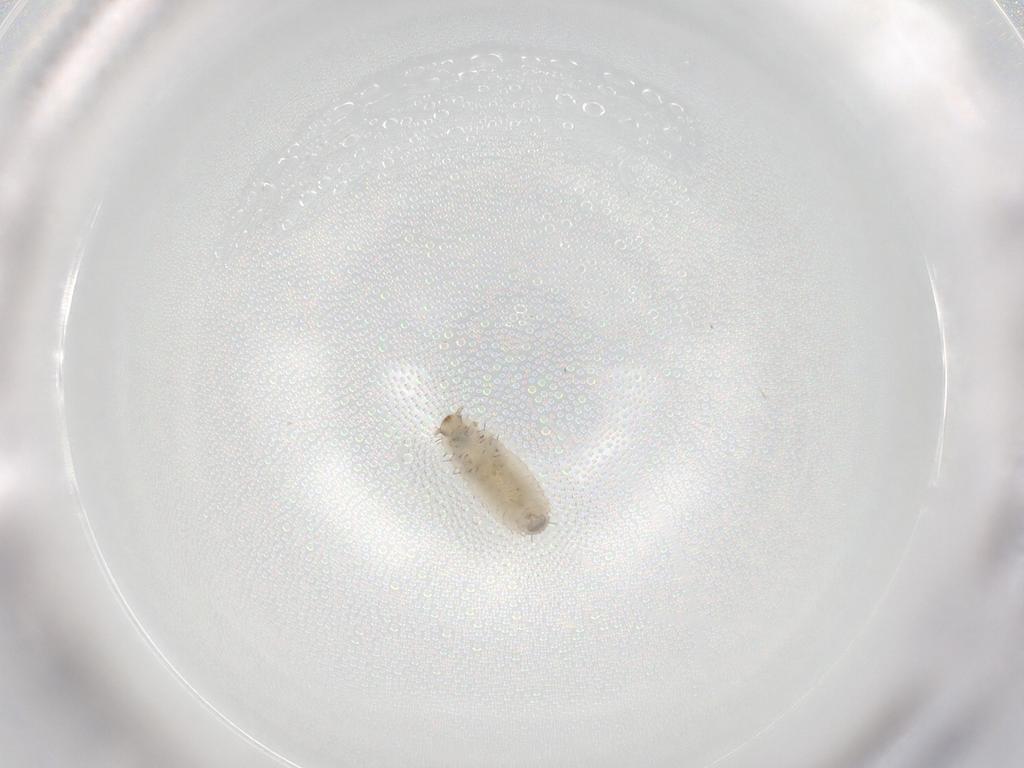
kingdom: Animalia
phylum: Arthropoda
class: Insecta
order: Coleoptera
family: Corylophidae
